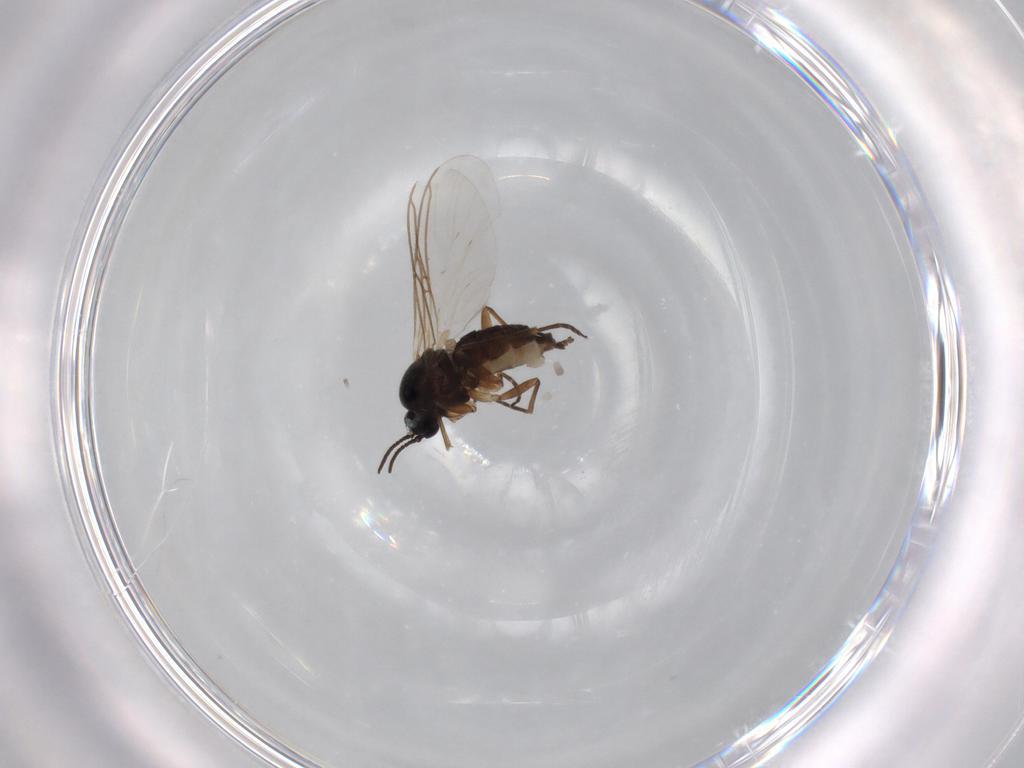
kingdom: Animalia
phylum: Arthropoda
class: Insecta
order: Diptera
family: Sciaridae
